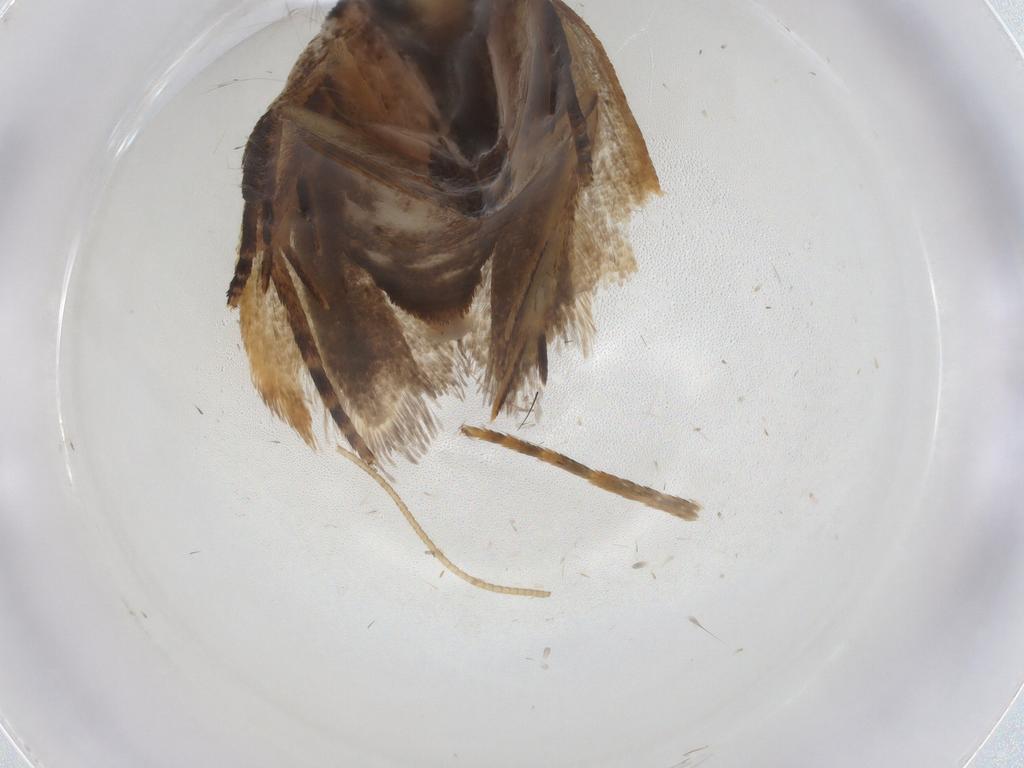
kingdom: Animalia
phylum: Arthropoda
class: Insecta
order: Lepidoptera
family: Gelechiidae
